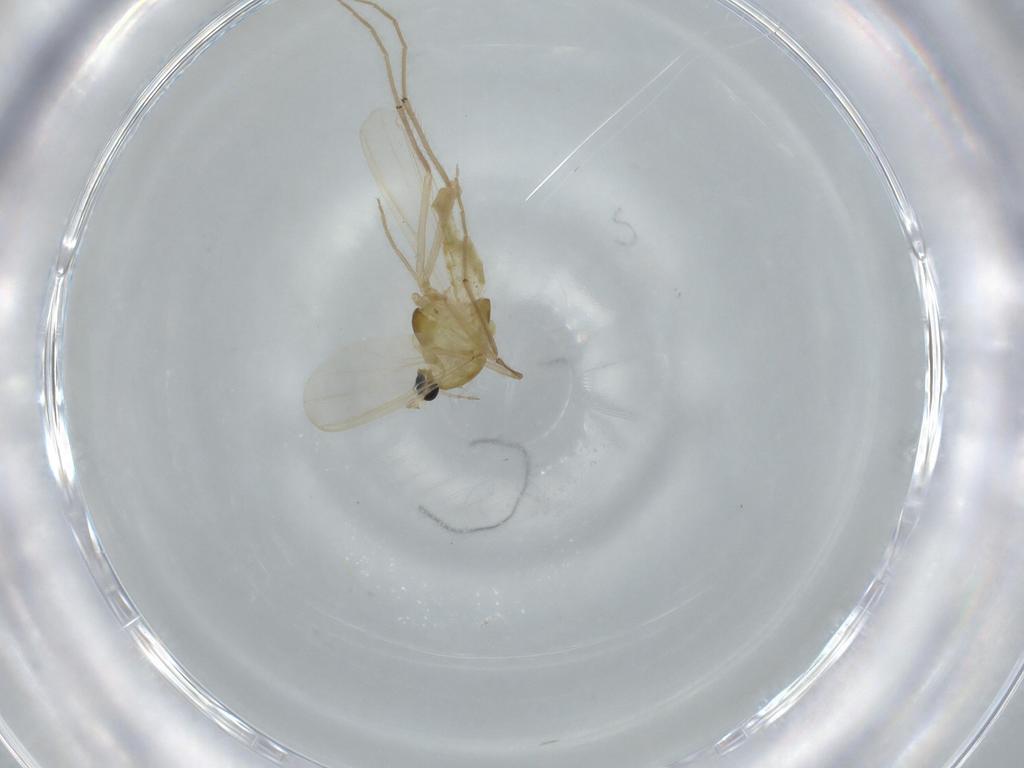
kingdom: Animalia
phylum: Arthropoda
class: Insecta
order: Diptera
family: Chironomidae
